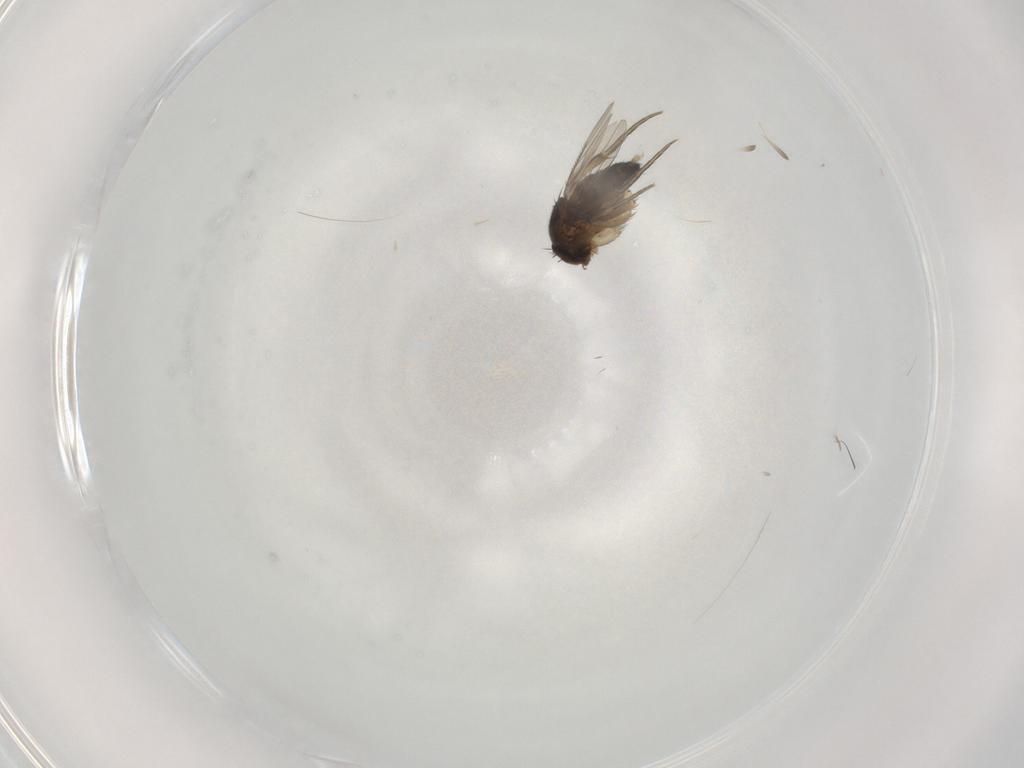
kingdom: Animalia
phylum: Arthropoda
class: Insecta
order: Diptera
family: Phoridae
